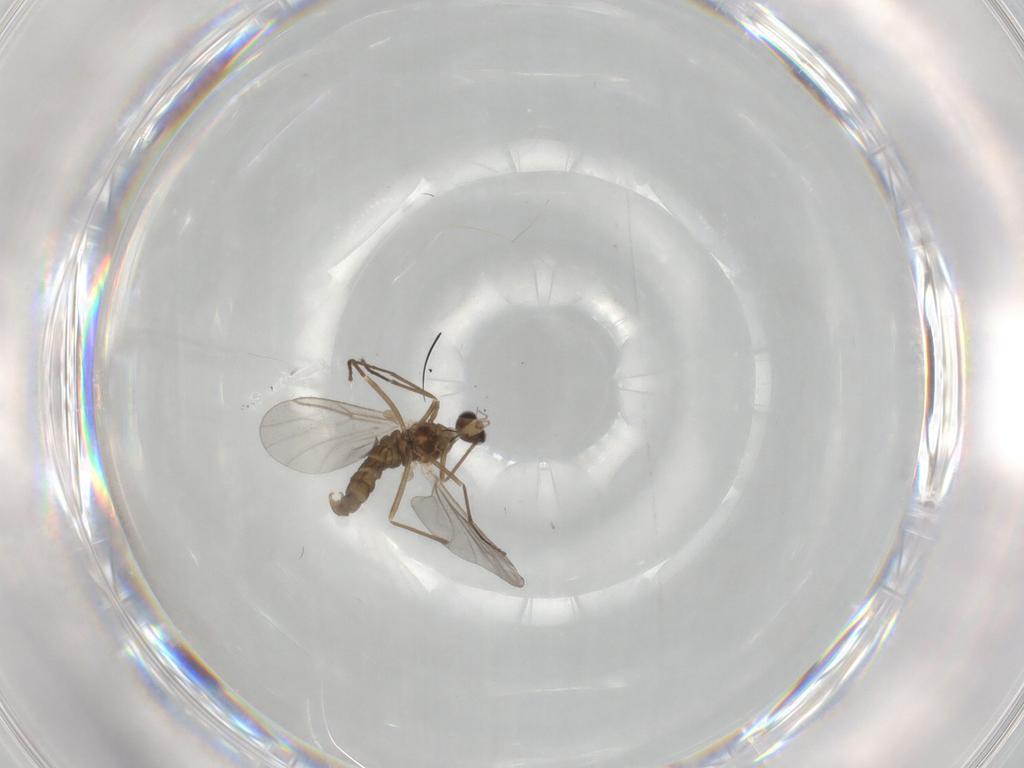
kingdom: Animalia
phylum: Arthropoda
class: Insecta
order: Diptera
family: Cecidomyiidae
